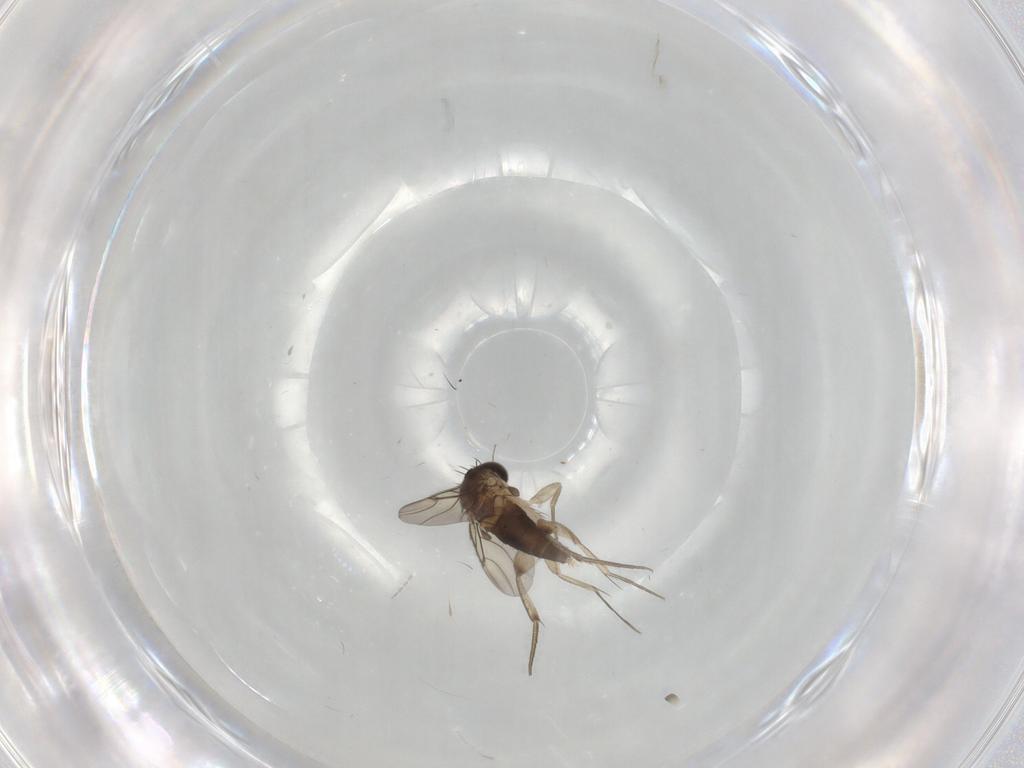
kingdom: Animalia
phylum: Arthropoda
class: Insecta
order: Diptera
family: Phoridae
